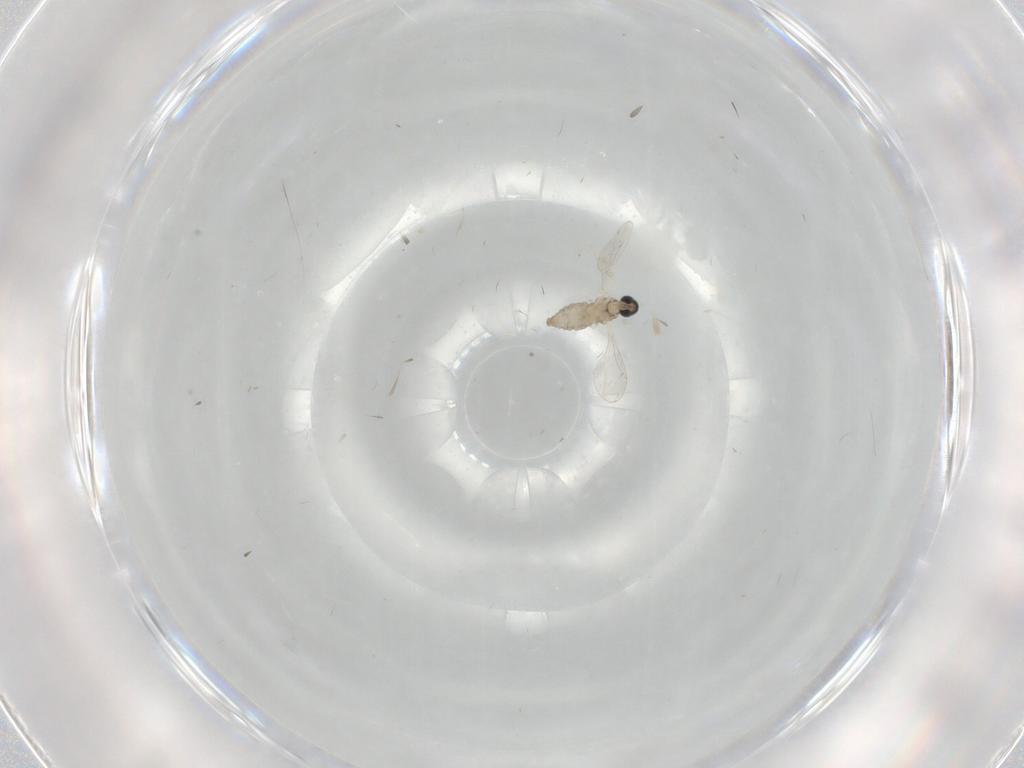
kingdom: Animalia
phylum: Arthropoda
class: Insecta
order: Diptera
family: Cecidomyiidae
